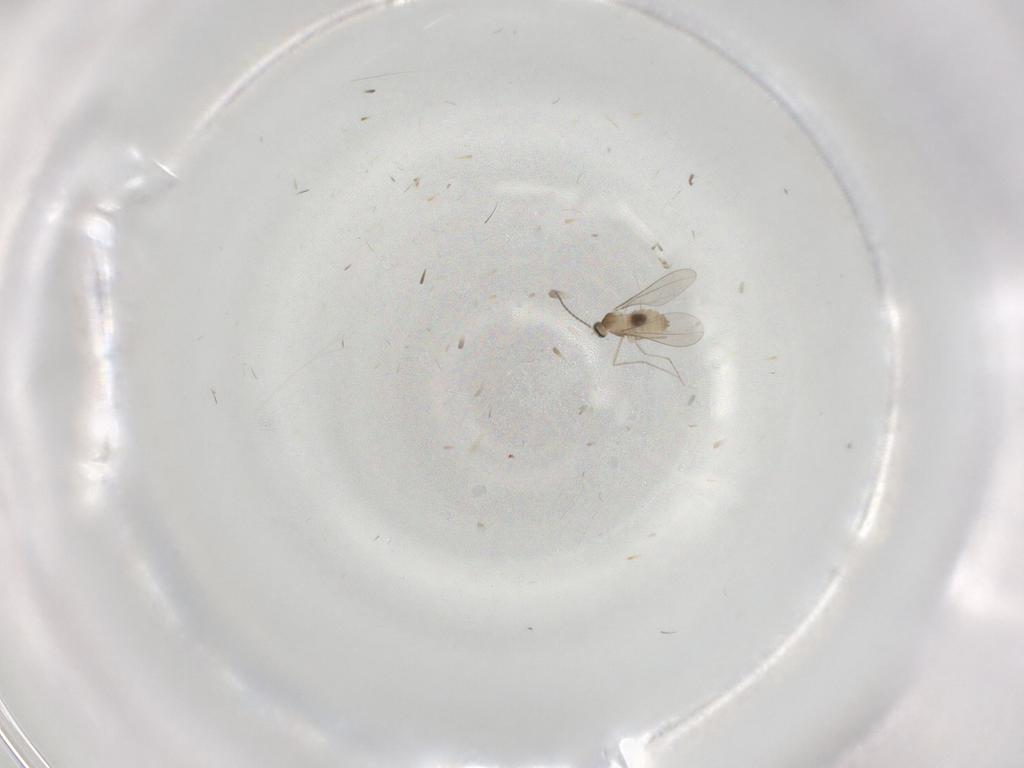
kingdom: Animalia
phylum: Arthropoda
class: Insecta
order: Diptera
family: Cecidomyiidae
